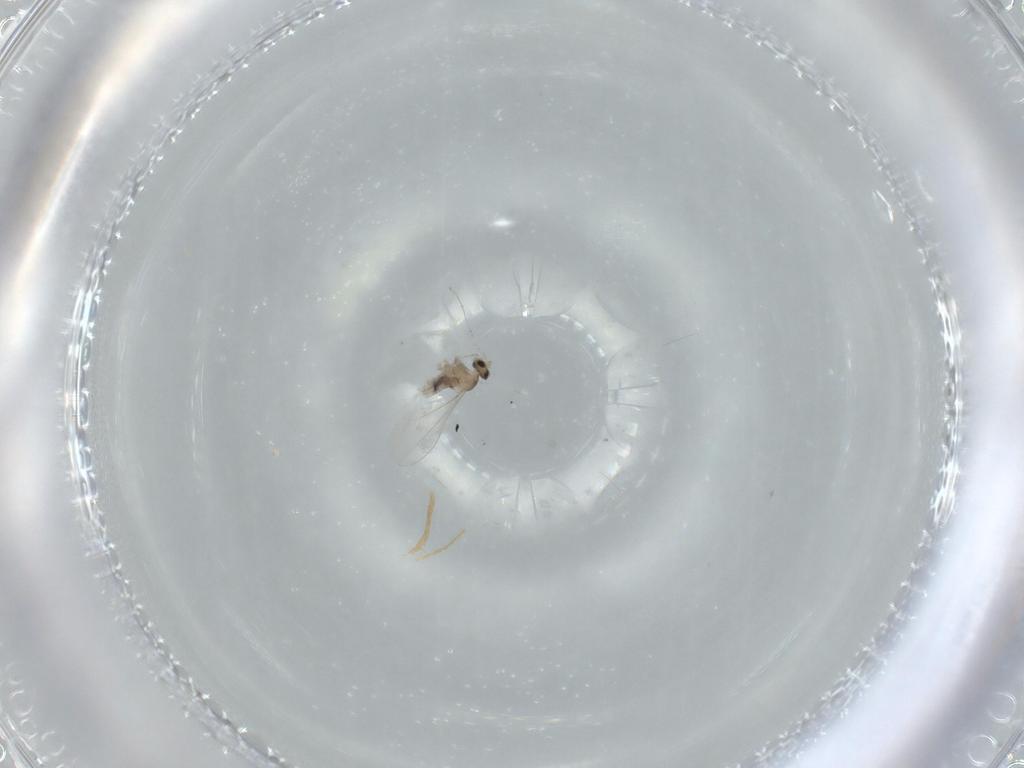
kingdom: Animalia
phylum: Arthropoda
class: Insecta
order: Diptera
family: Cecidomyiidae
